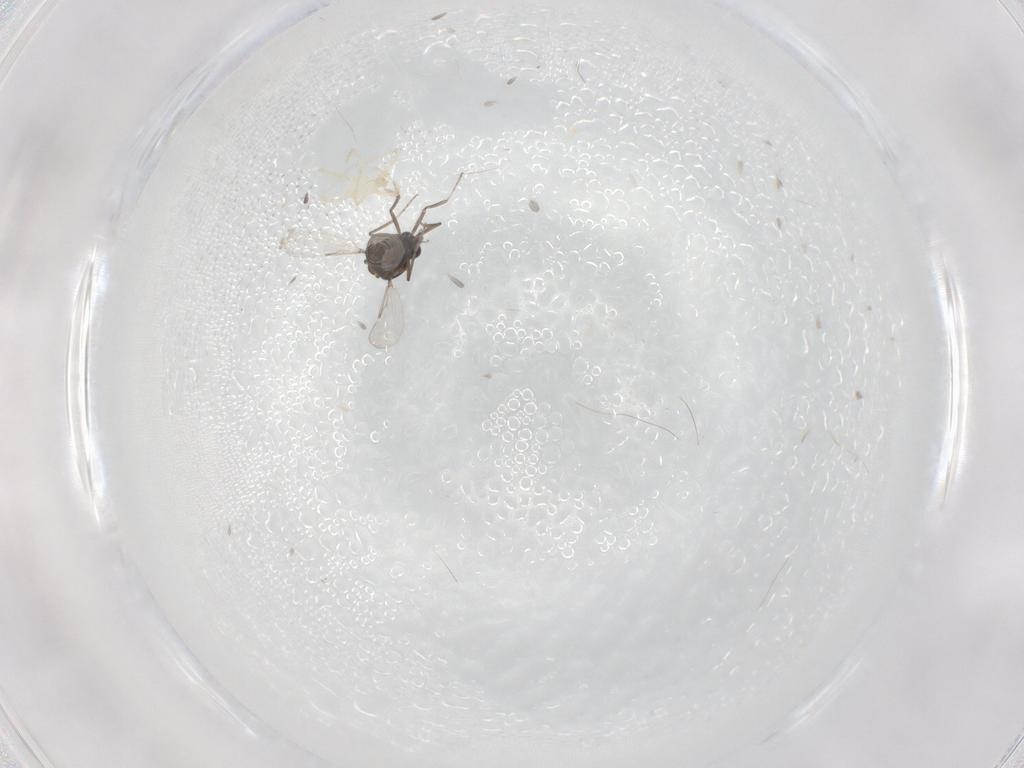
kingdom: Animalia
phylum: Arthropoda
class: Insecta
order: Diptera
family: Ceratopogonidae
